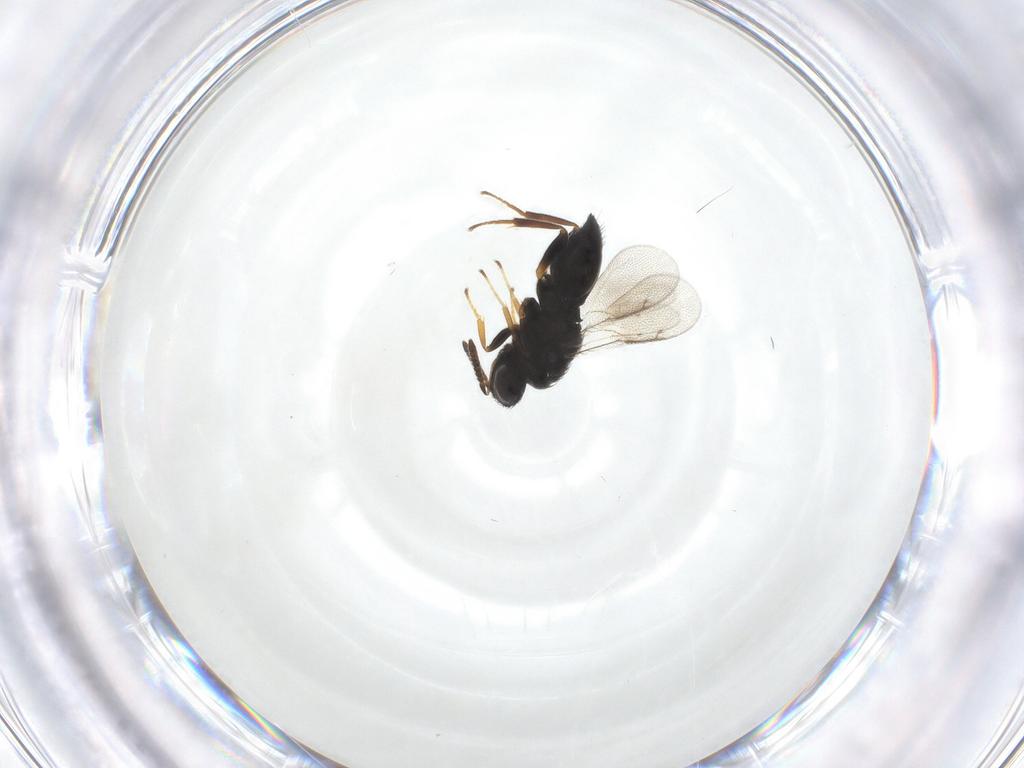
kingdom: Animalia
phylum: Arthropoda
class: Insecta
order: Hymenoptera
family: Pteromalidae
